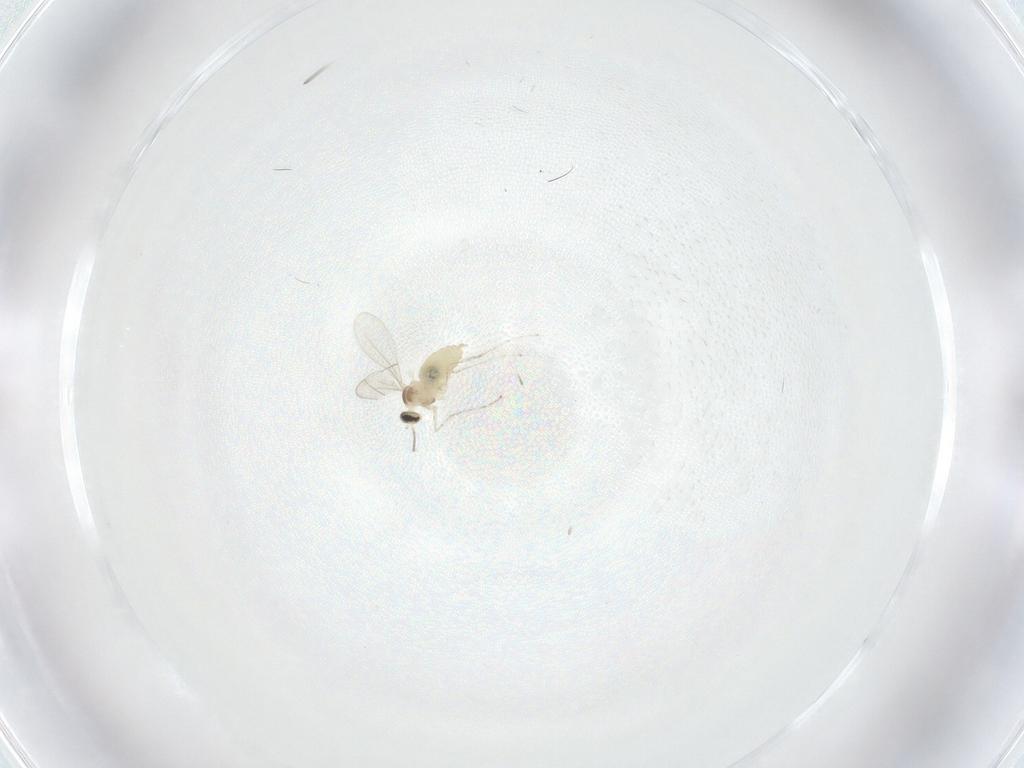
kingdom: Animalia
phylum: Arthropoda
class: Insecta
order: Diptera
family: Cecidomyiidae
